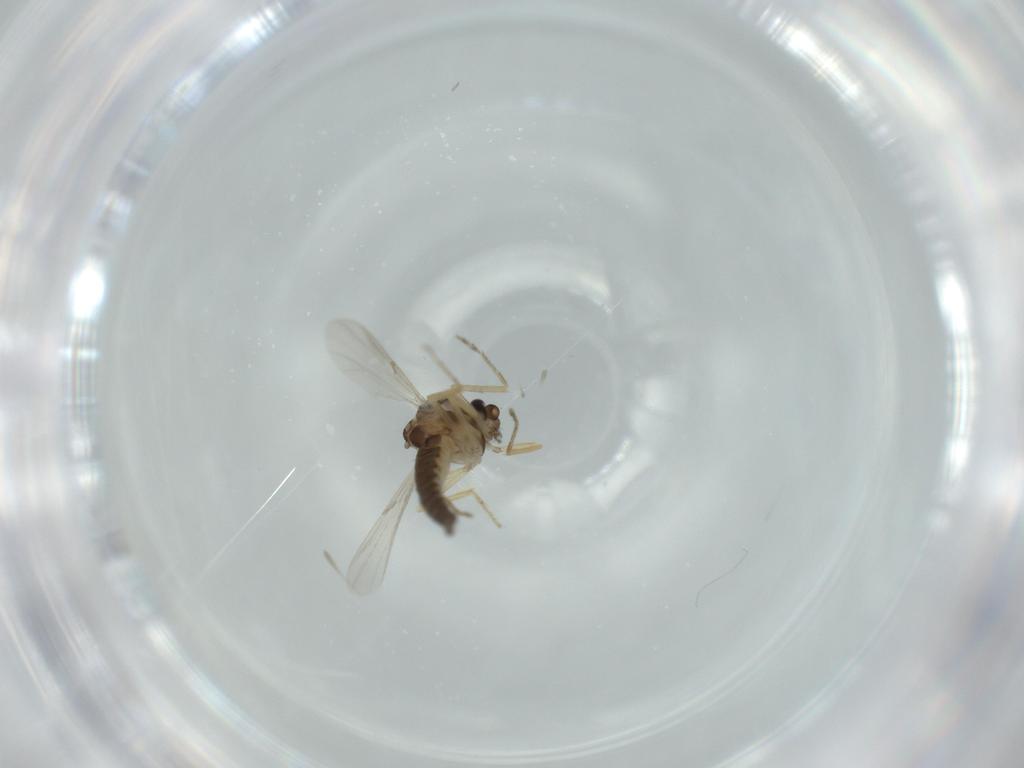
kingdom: Animalia
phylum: Arthropoda
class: Insecta
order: Diptera
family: Ceratopogonidae
